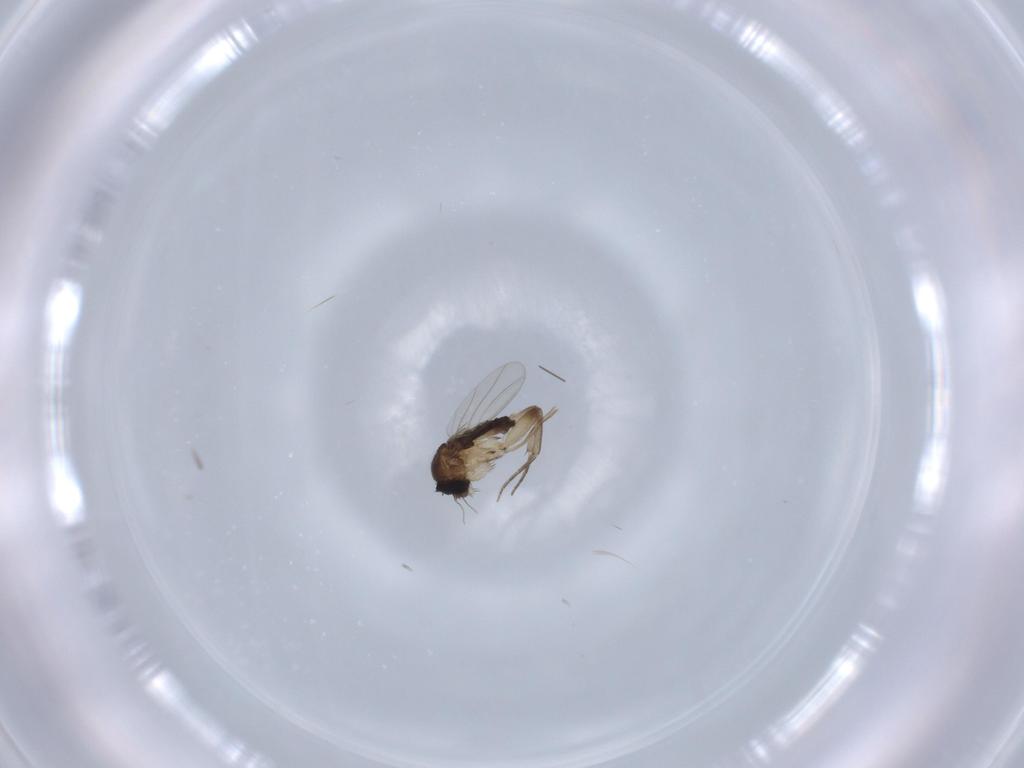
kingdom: Animalia
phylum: Arthropoda
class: Insecta
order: Diptera
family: Phoridae
